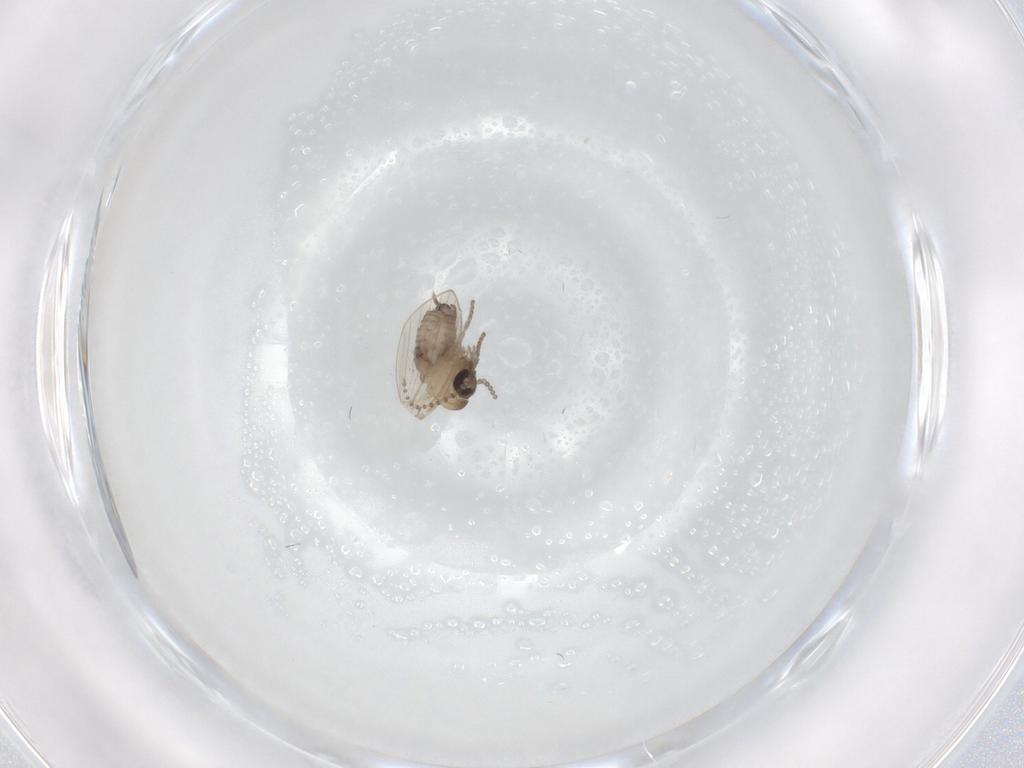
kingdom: Animalia
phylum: Arthropoda
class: Insecta
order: Diptera
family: Psychodidae
